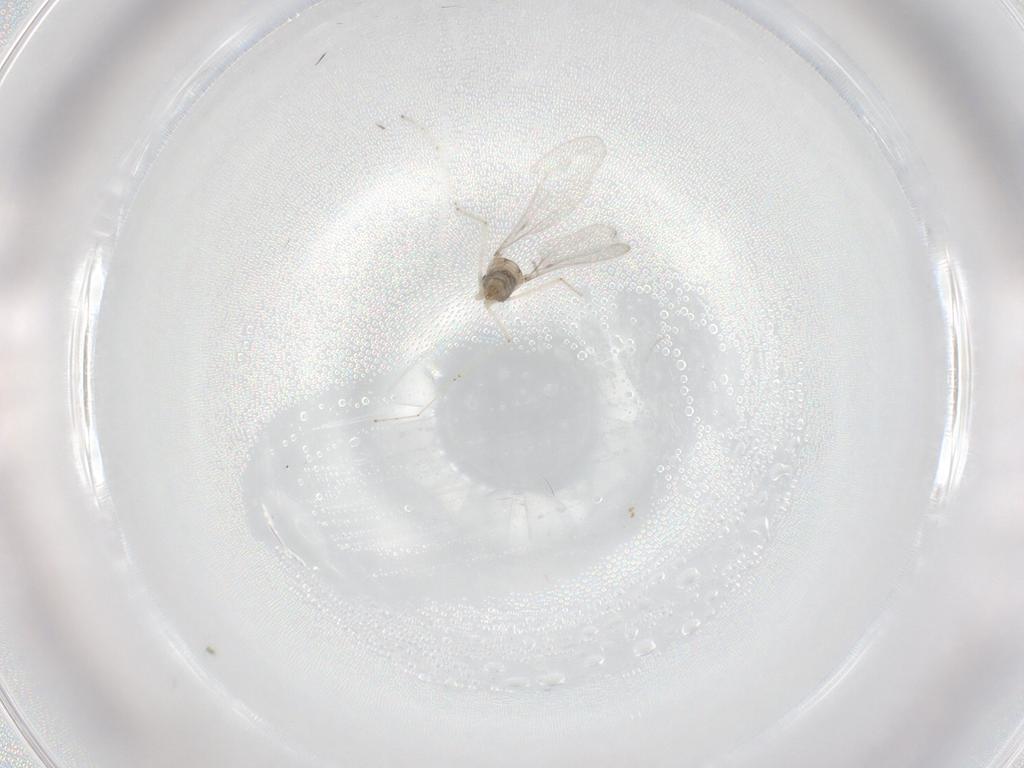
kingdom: Animalia
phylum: Arthropoda
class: Insecta
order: Diptera
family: Cecidomyiidae
